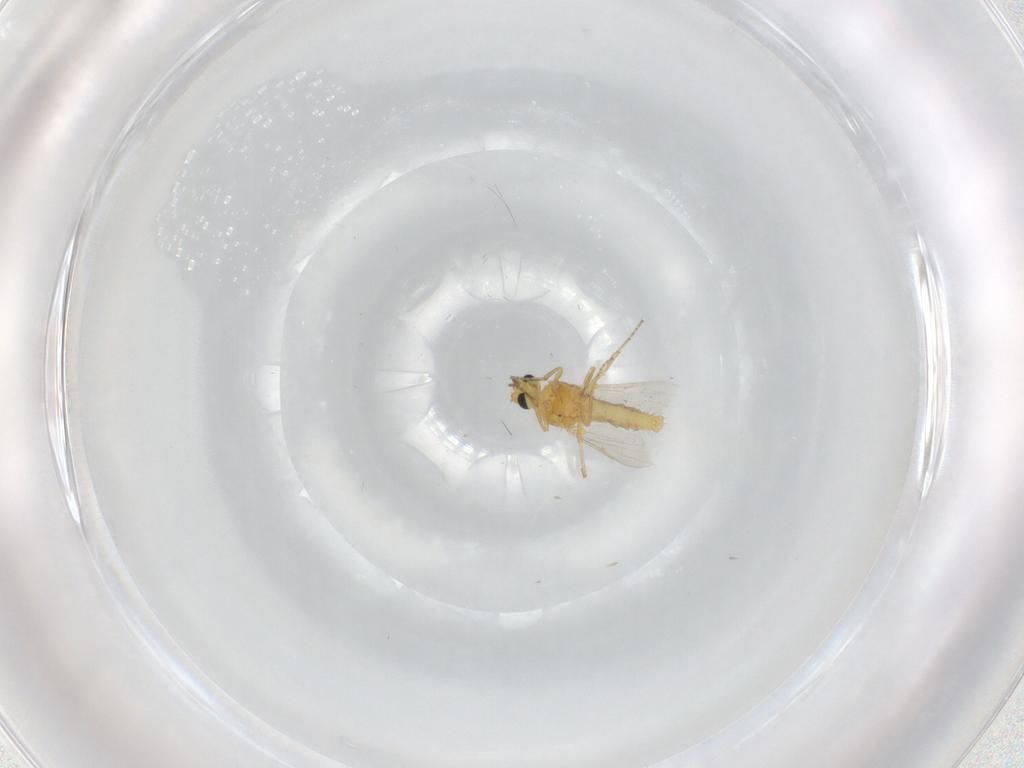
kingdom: Animalia
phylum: Arthropoda
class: Insecta
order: Diptera
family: Ceratopogonidae
